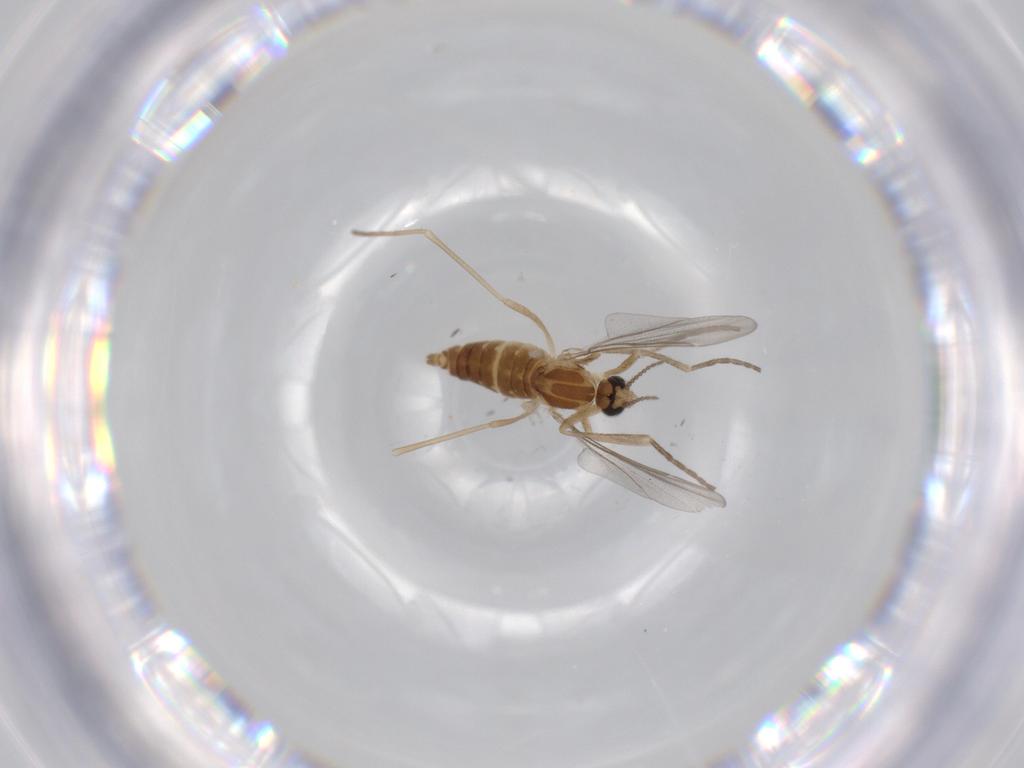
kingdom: Animalia
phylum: Arthropoda
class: Insecta
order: Diptera
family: Cecidomyiidae
